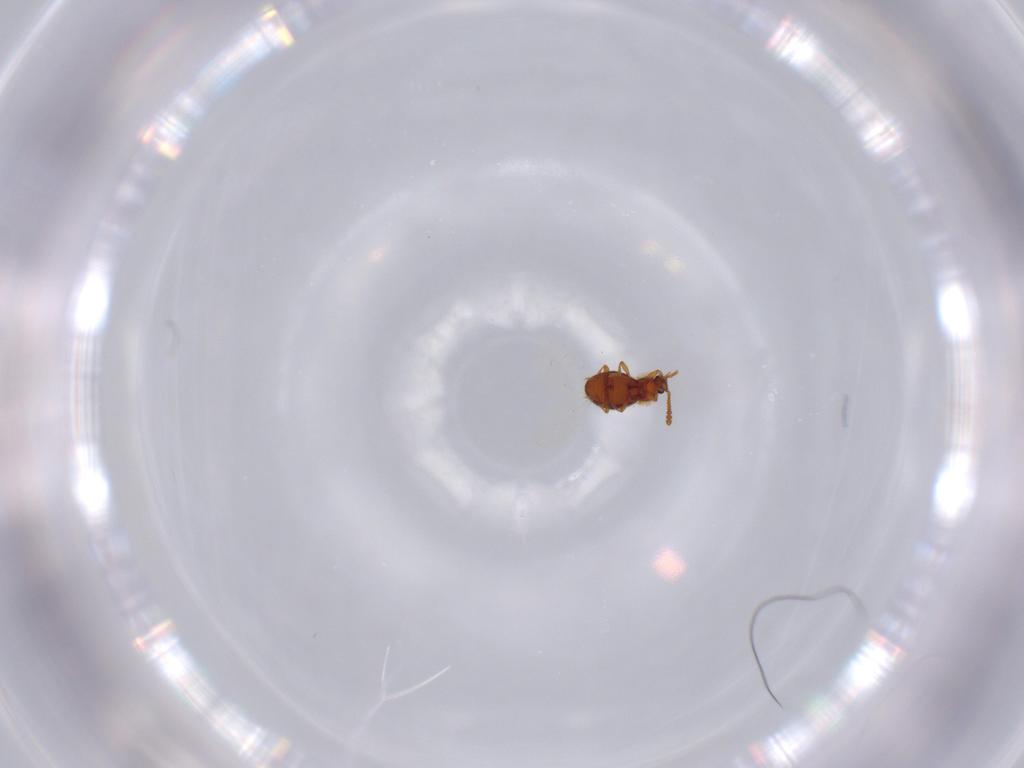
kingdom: Animalia
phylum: Arthropoda
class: Insecta
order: Coleoptera
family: Staphylinidae
